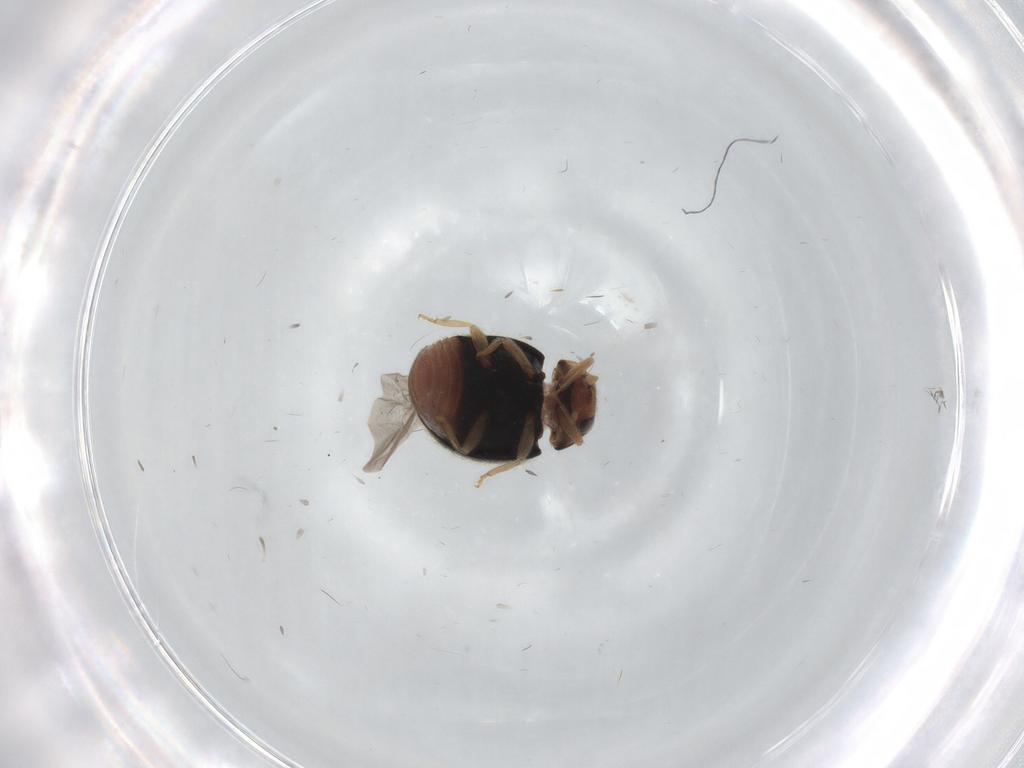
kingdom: Animalia
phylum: Arthropoda
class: Insecta
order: Coleoptera
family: Coccinellidae
